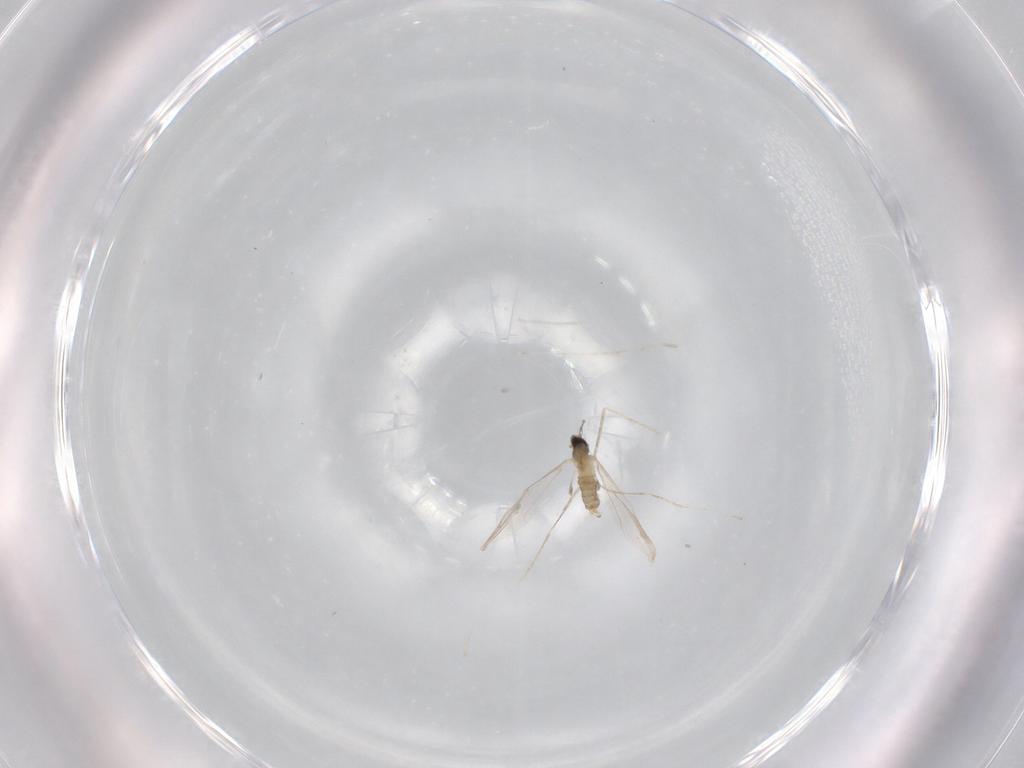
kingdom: Animalia
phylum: Arthropoda
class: Insecta
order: Diptera
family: Cecidomyiidae
